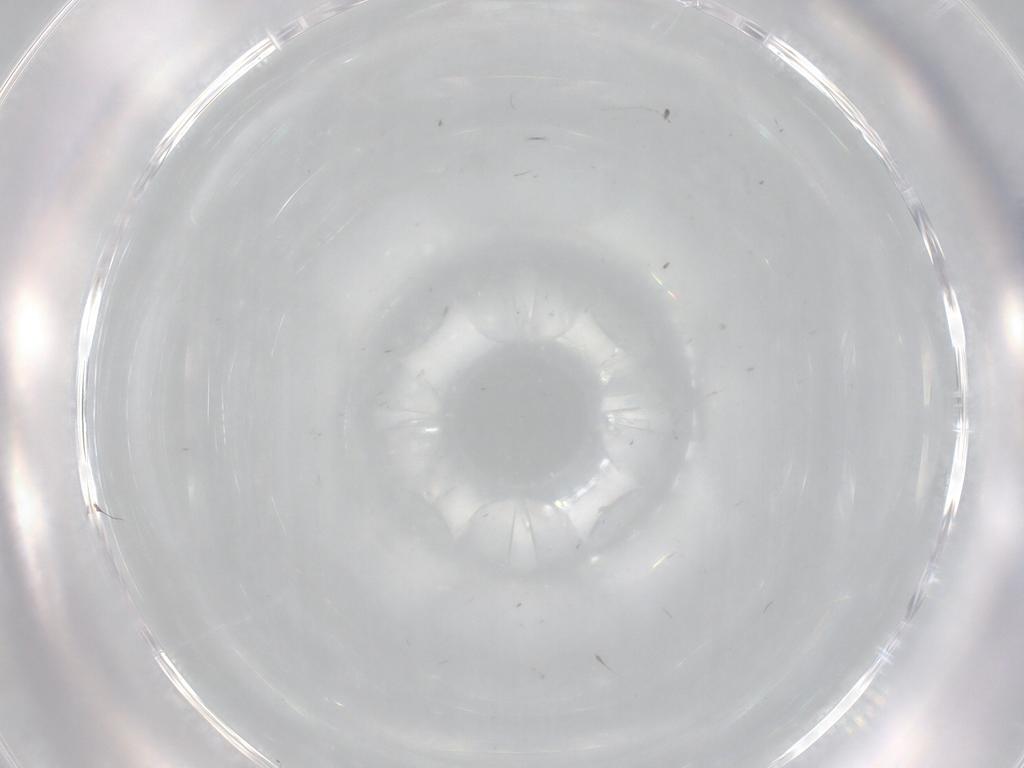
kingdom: Animalia
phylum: Arthropoda
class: Insecta
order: Diptera
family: Cecidomyiidae
